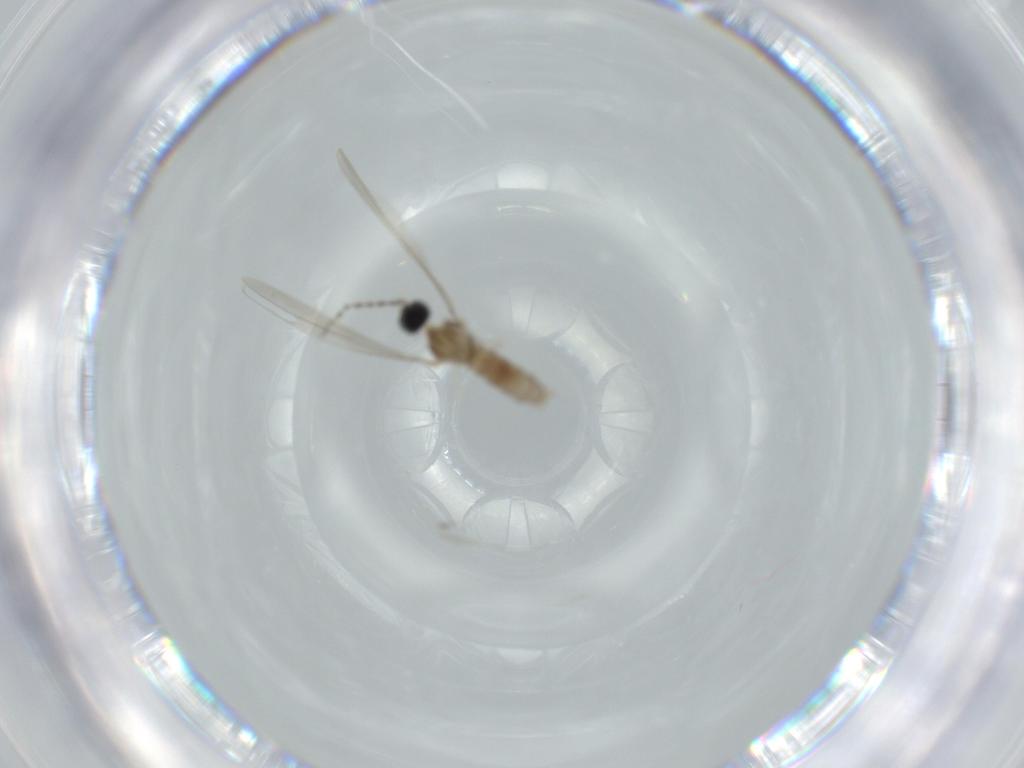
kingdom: Animalia
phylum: Arthropoda
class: Insecta
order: Diptera
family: Cecidomyiidae
